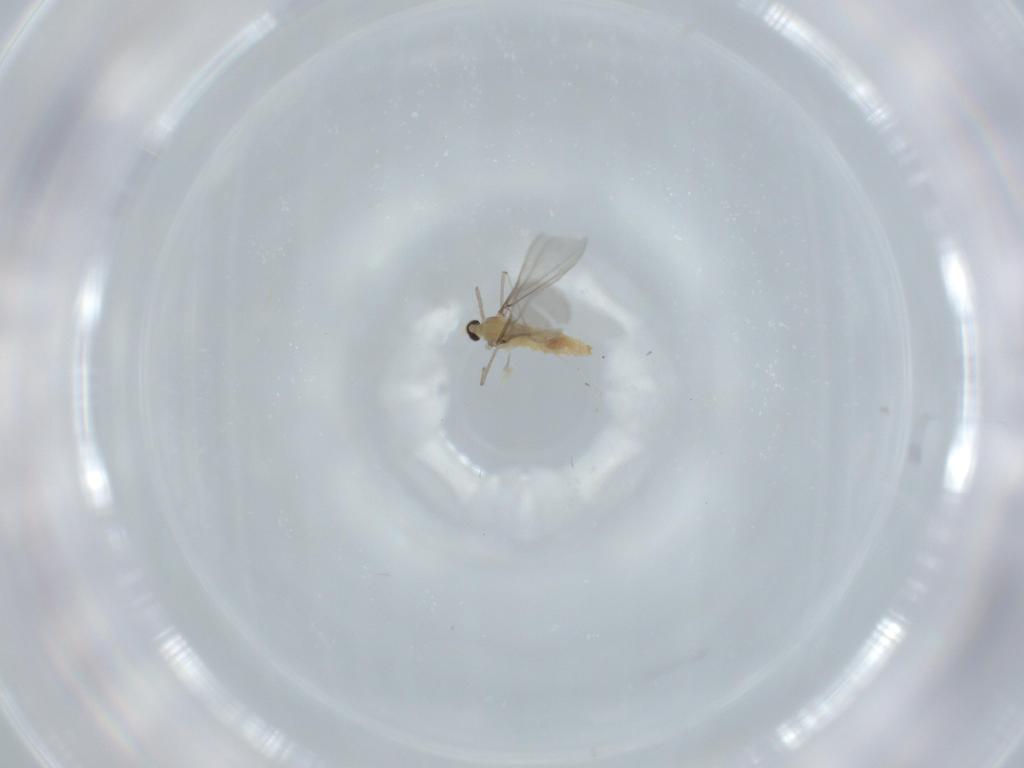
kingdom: Animalia
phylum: Arthropoda
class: Insecta
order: Diptera
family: Cecidomyiidae
